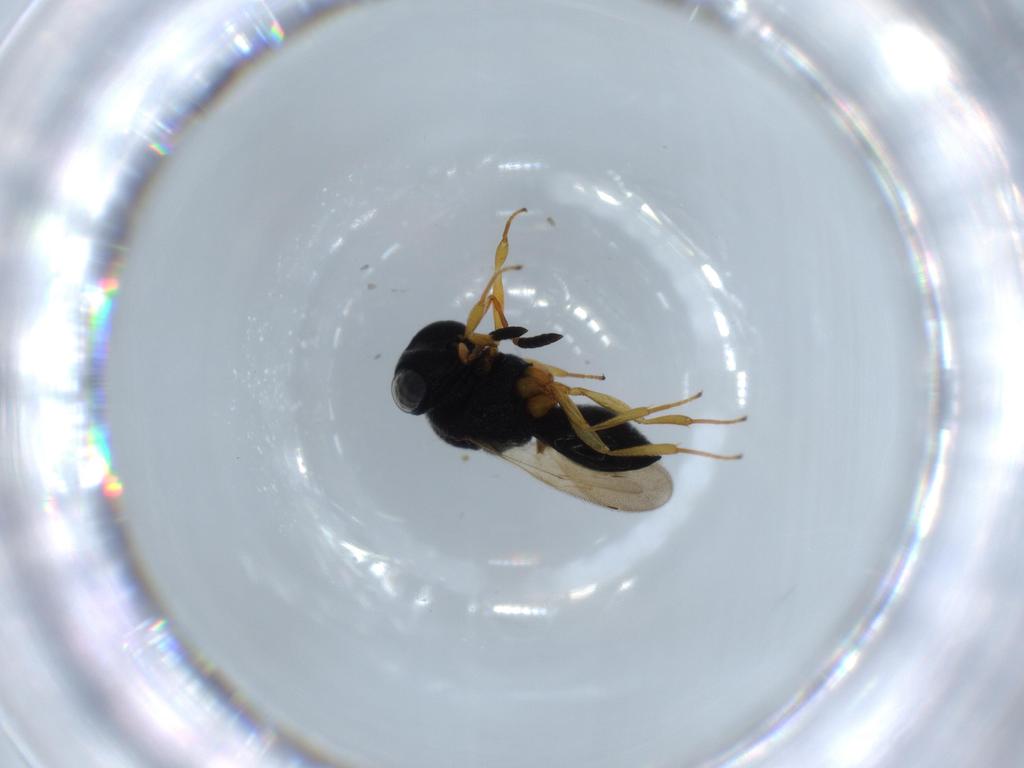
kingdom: Animalia
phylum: Arthropoda
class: Insecta
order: Hymenoptera
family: Scelionidae
